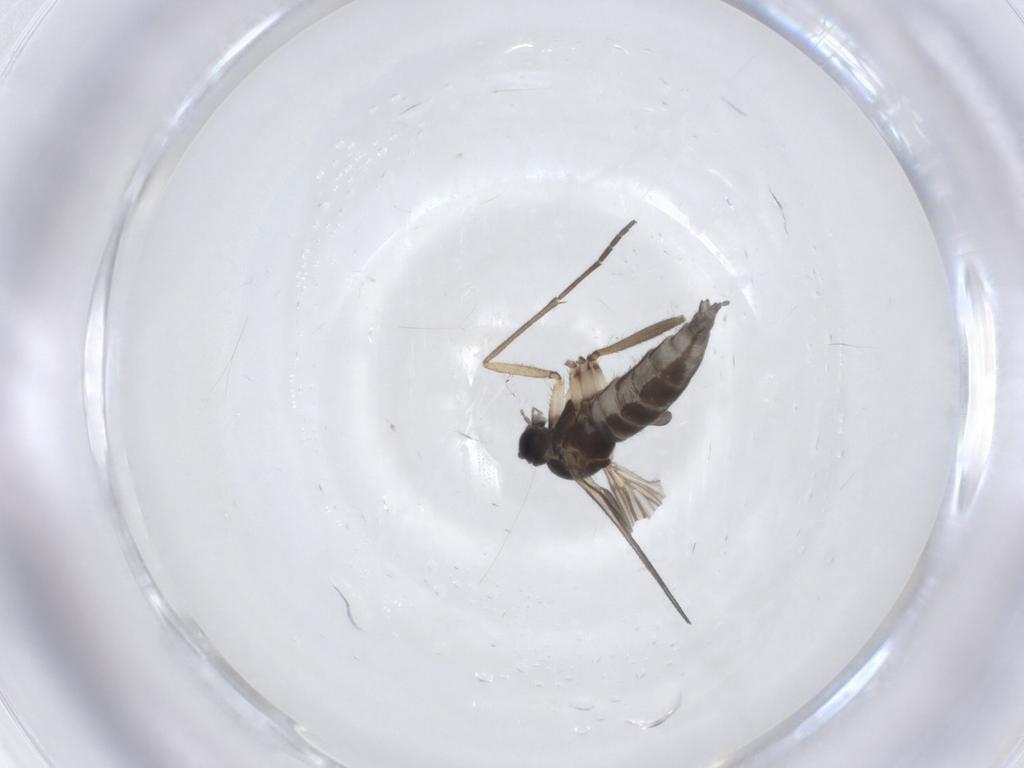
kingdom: Animalia
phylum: Arthropoda
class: Insecta
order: Diptera
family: Sciaridae
